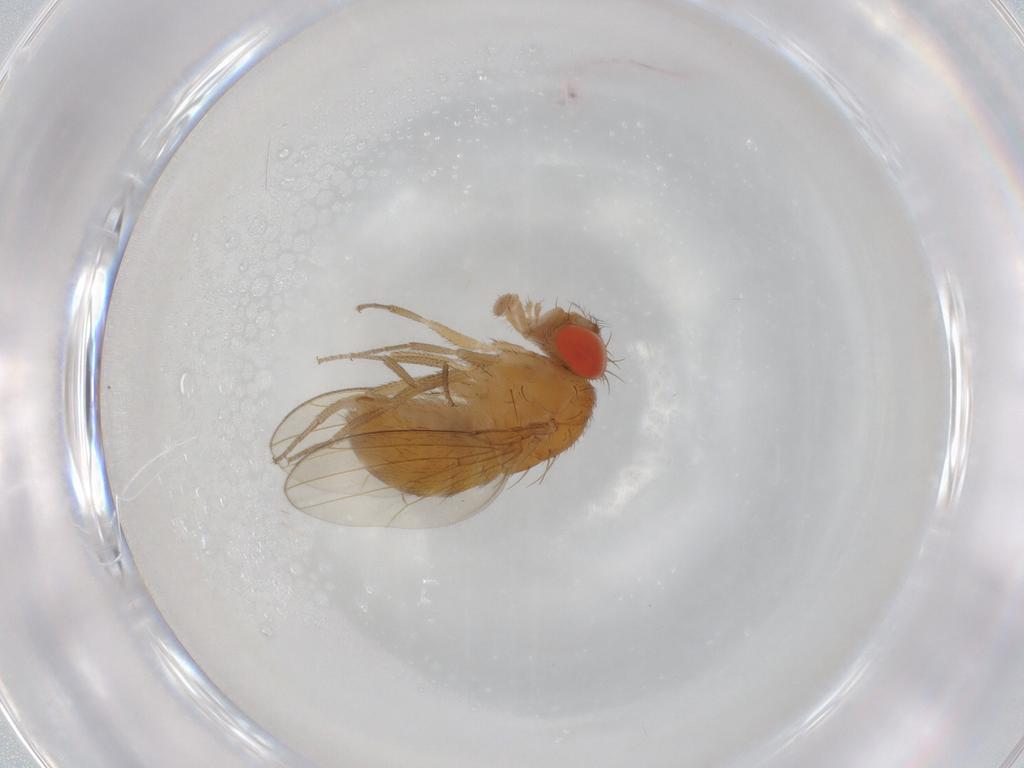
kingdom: Animalia
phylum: Arthropoda
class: Insecta
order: Diptera
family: Drosophilidae
